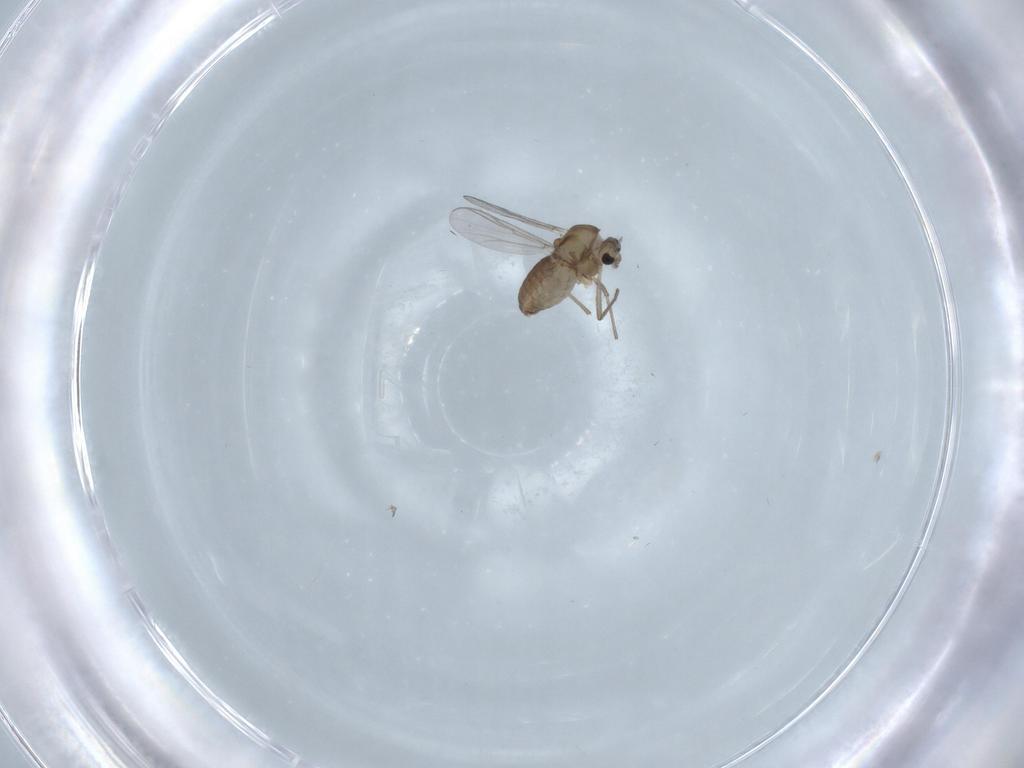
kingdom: Animalia
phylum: Arthropoda
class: Insecta
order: Diptera
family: Chironomidae
